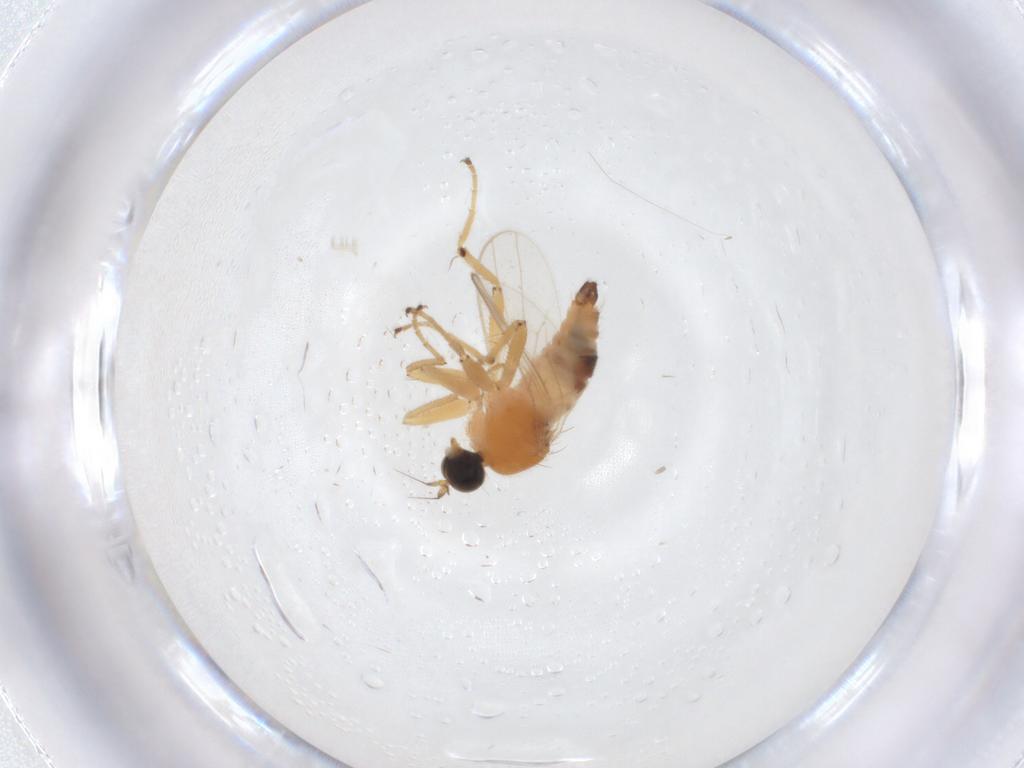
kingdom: Animalia
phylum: Arthropoda
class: Insecta
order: Diptera
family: Hybotidae
